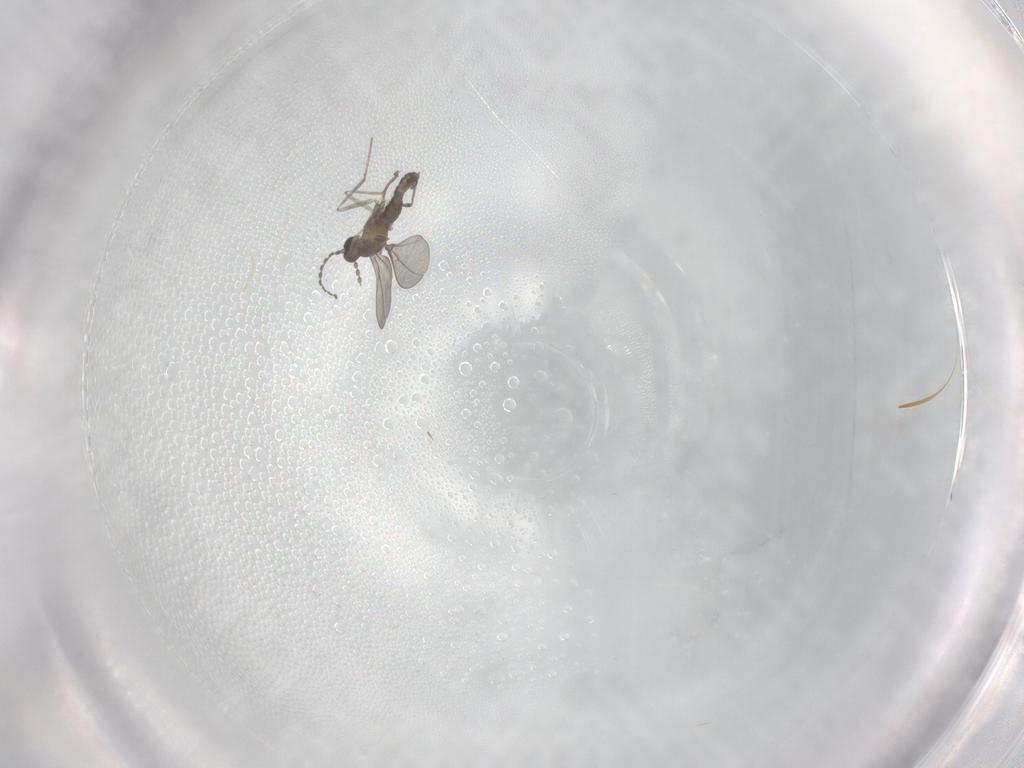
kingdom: Animalia
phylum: Arthropoda
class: Insecta
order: Diptera
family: Cecidomyiidae
